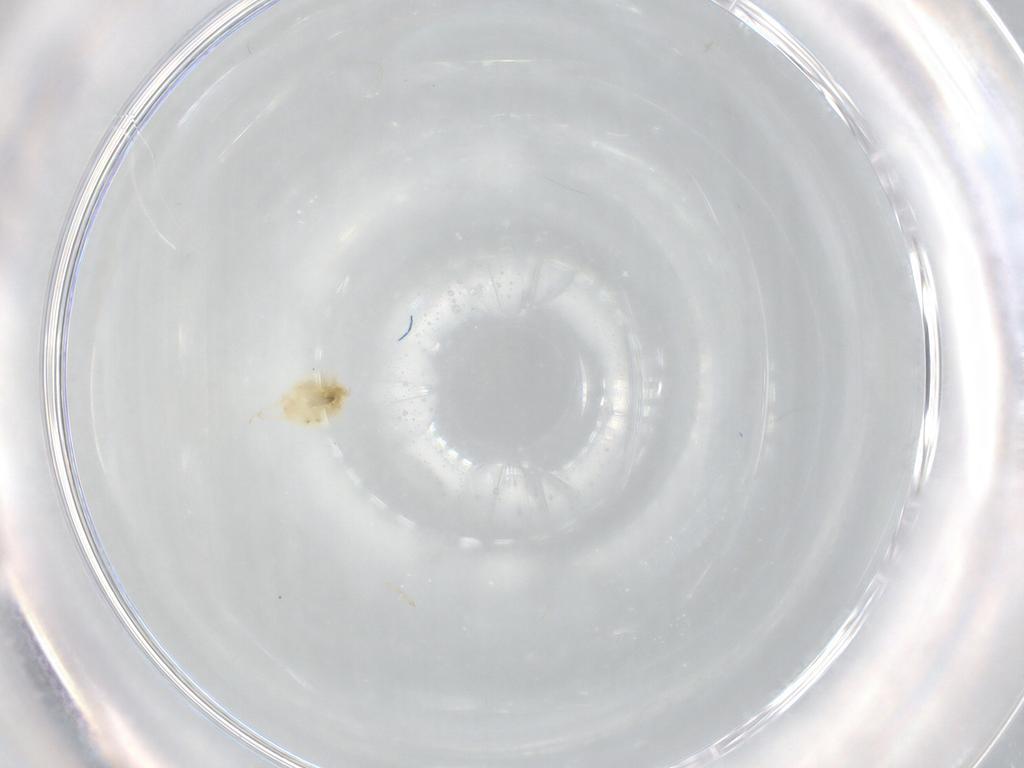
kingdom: Animalia
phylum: Arthropoda
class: Arachnida
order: Trombidiformes
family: Tetranychidae
